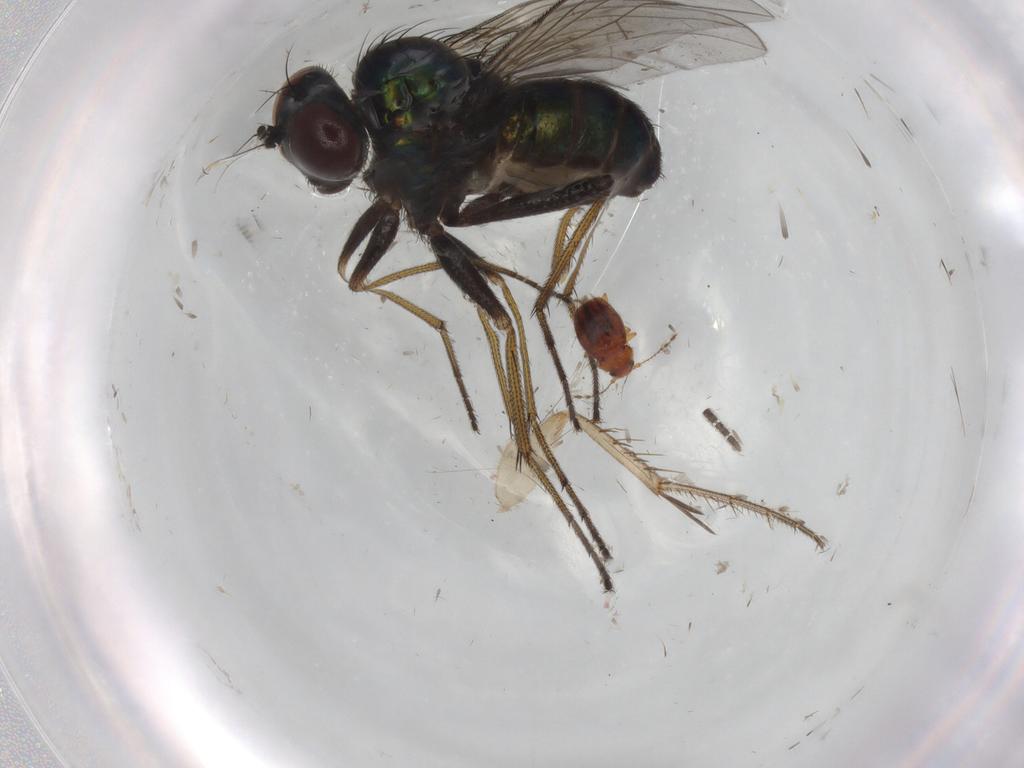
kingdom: Animalia
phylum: Arthropoda
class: Insecta
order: Diptera
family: Dolichopodidae
